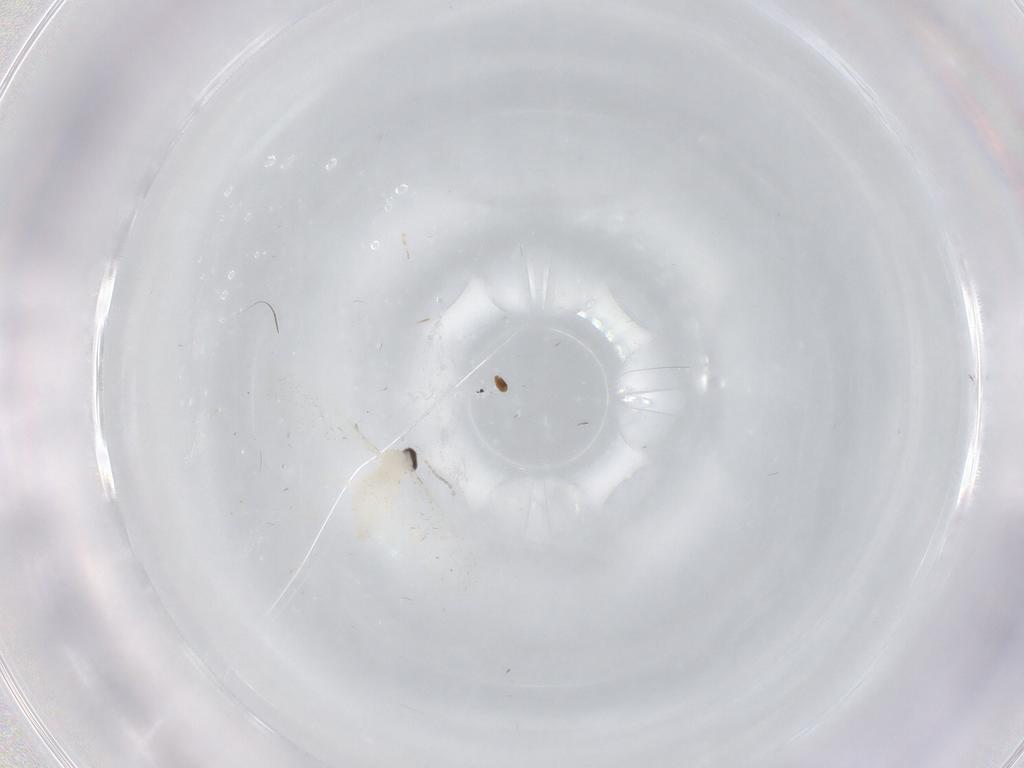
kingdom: Animalia
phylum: Arthropoda
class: Insecta
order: Diptera
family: Cecidomyiidae
